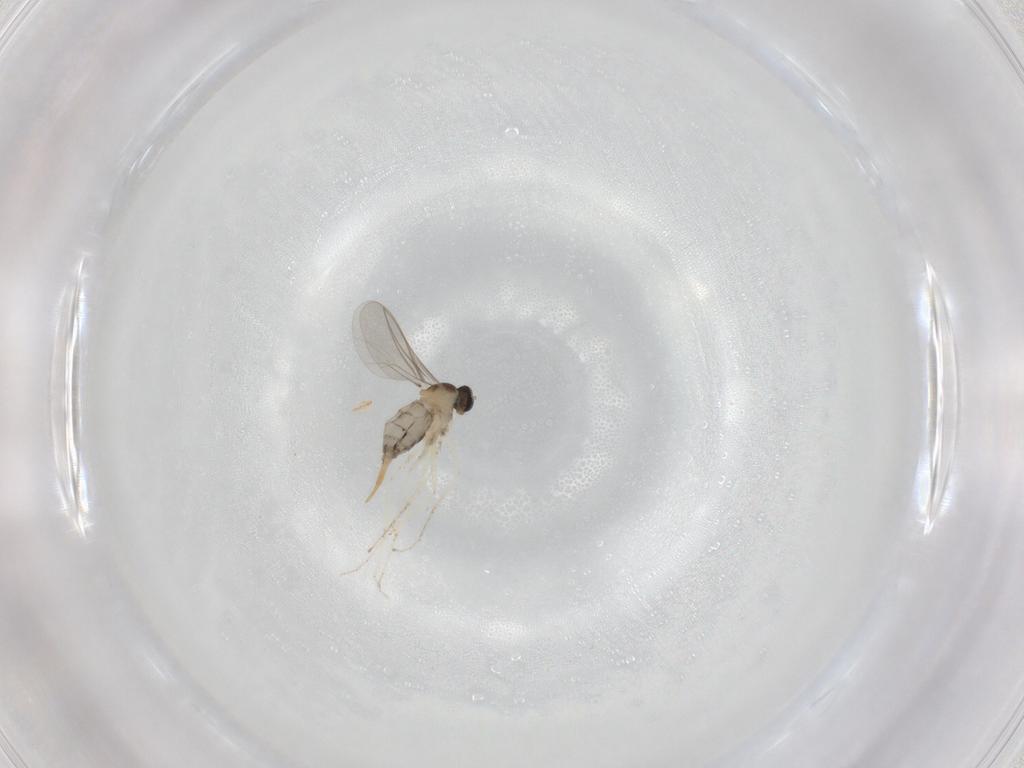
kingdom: Animalia
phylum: Arthropoda
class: Insecta
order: Diptera
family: Cecidomyiidae
